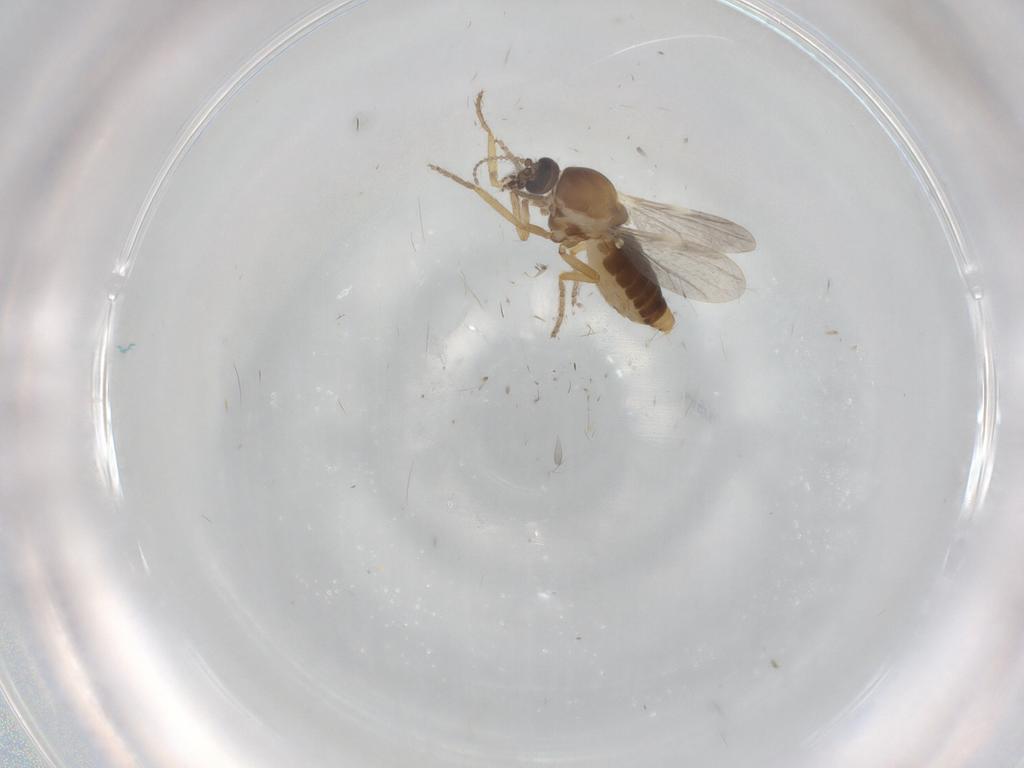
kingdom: Animalia
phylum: Arthropoda
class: Insecta
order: Diptera
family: Ceratopogonidae
